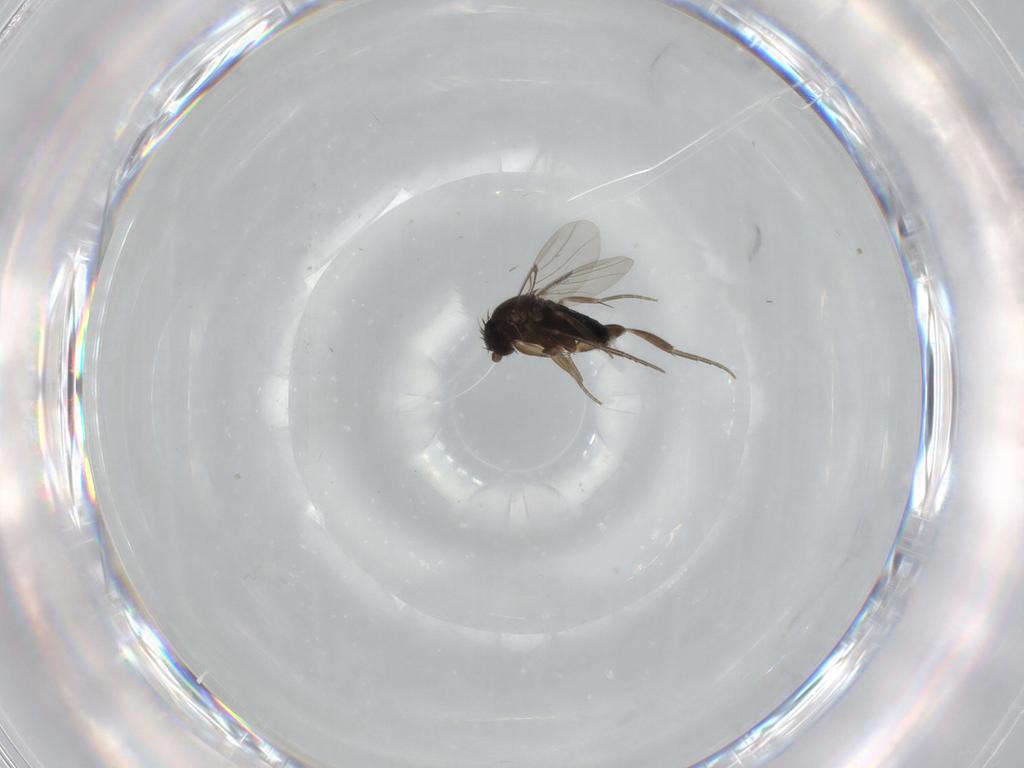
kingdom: Animalia
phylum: Arthropoda
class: Insecta
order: Diptera
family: Phoridae
